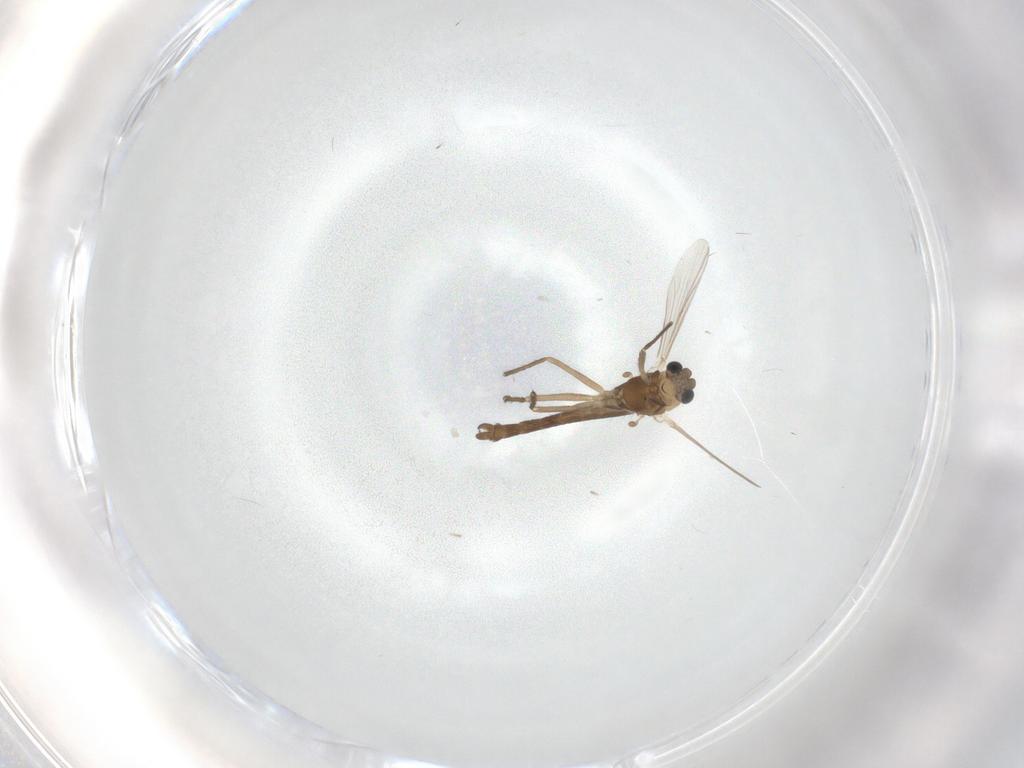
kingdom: Animalia
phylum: Arthropoda
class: Insecta
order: Diptera
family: Chironomidae
